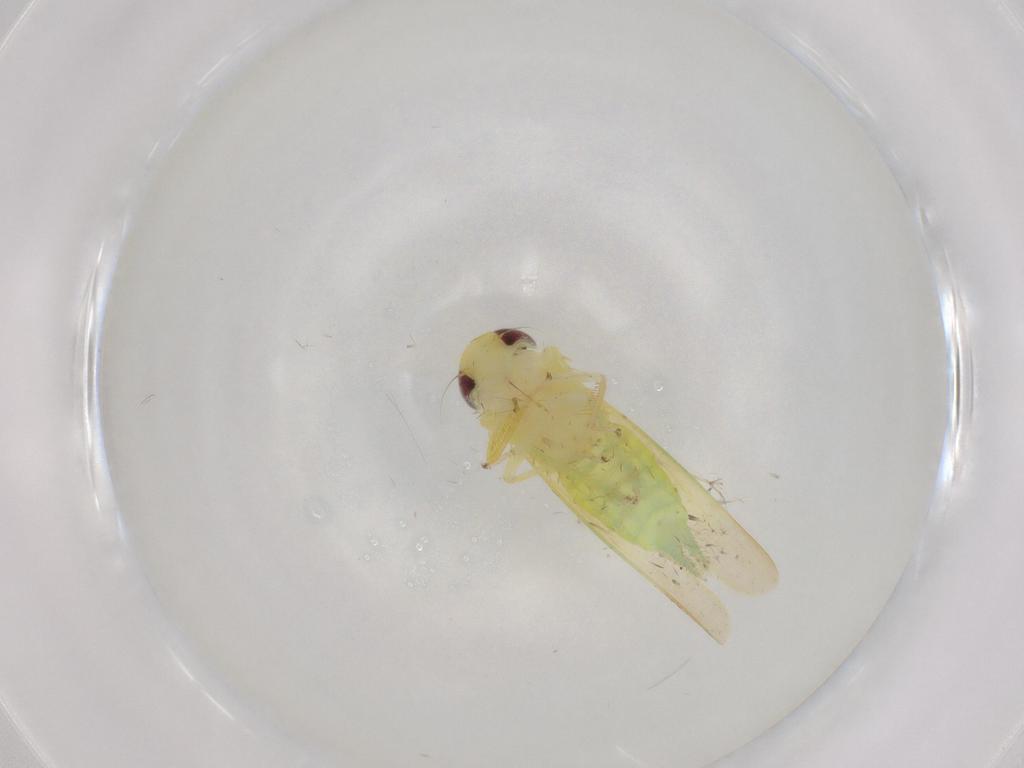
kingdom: Animalia
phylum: Arthropoda
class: Insecta
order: Hemiptera
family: Cicadellidae
